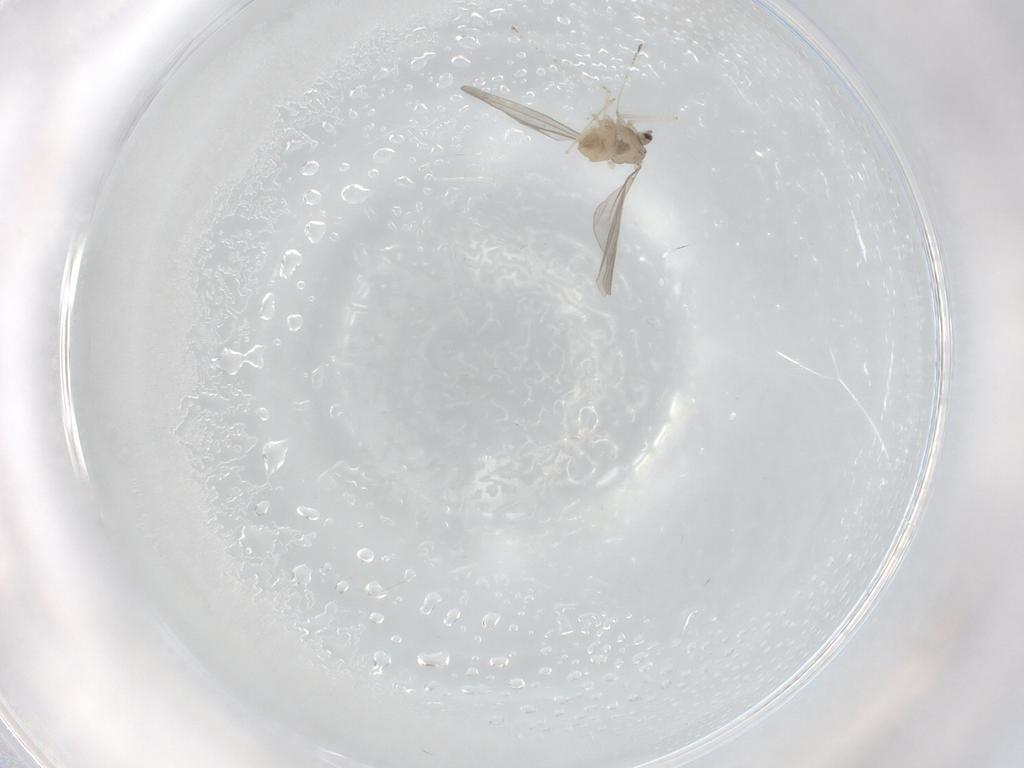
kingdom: Animalia
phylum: Arthropoda
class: Insecta
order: Diptera
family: Cecidomyiidae
